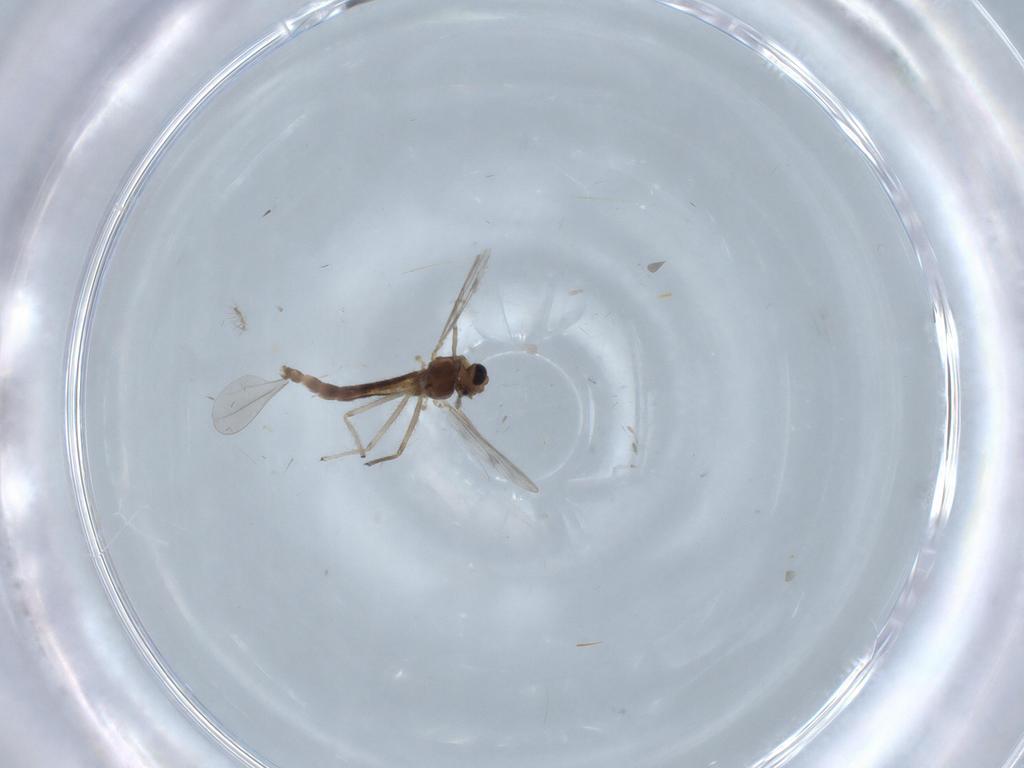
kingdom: Animalia
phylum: Arthropoda
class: Insecta
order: Diptera
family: Chironomidae
